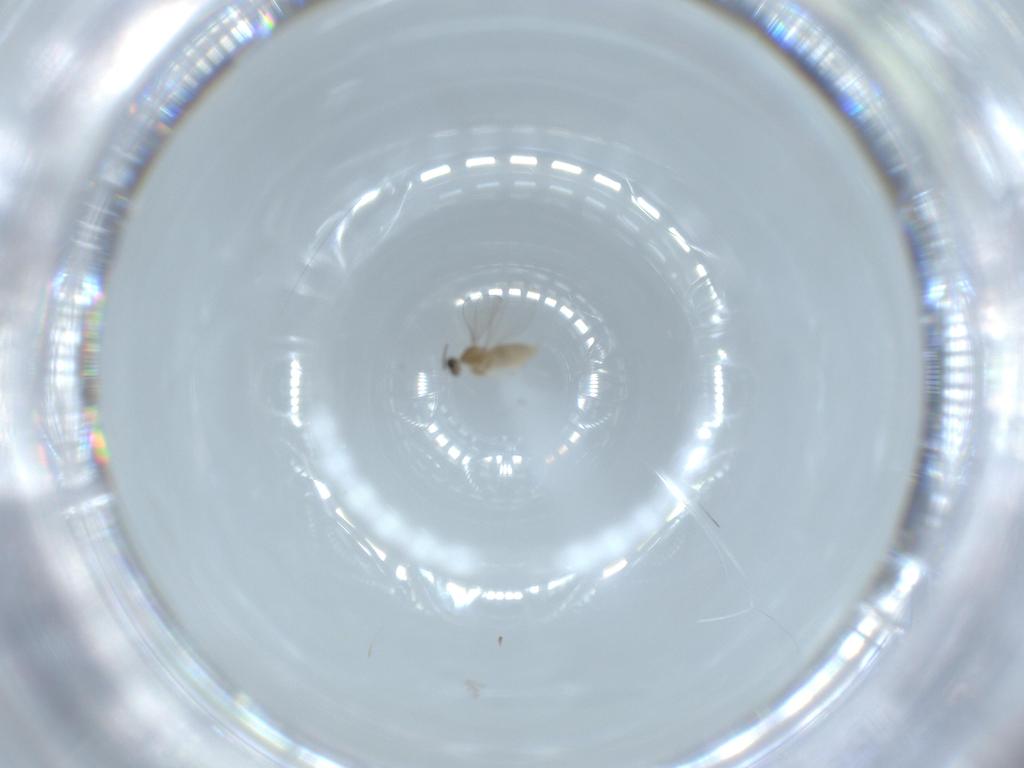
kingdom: Animalia
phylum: Arthropoda
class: Insecta
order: Diptera
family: Cecidomyiidae
